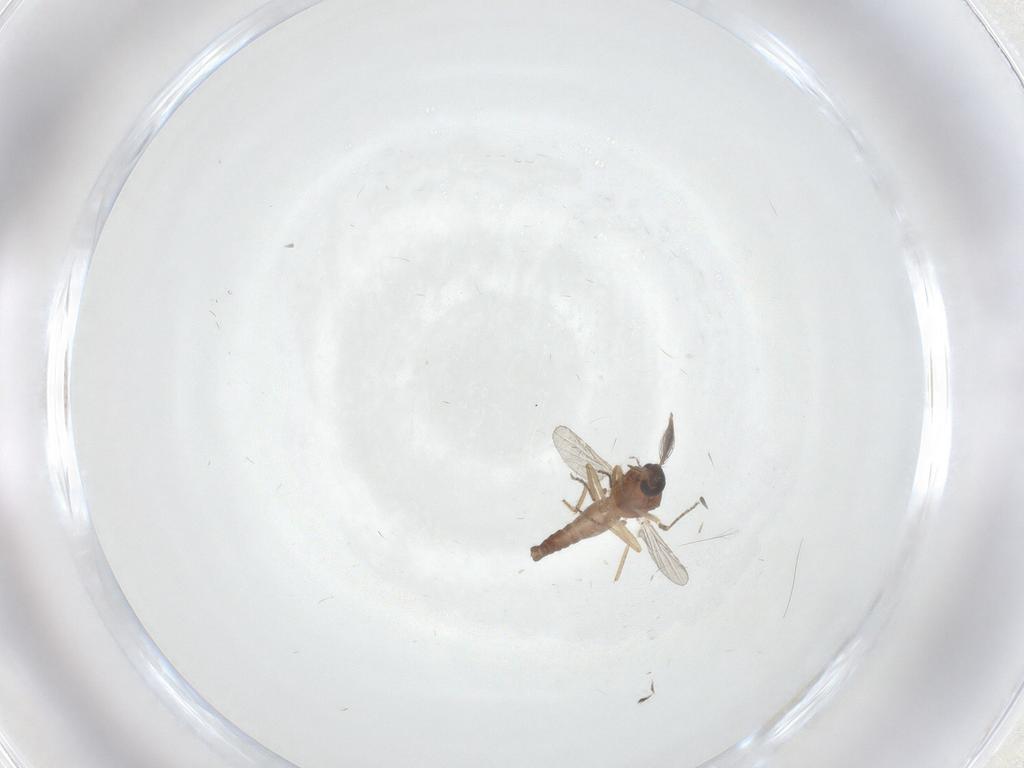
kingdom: Animalia
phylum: Arthropoda
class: Insecta
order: Diptera
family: Ceratopogonidae
